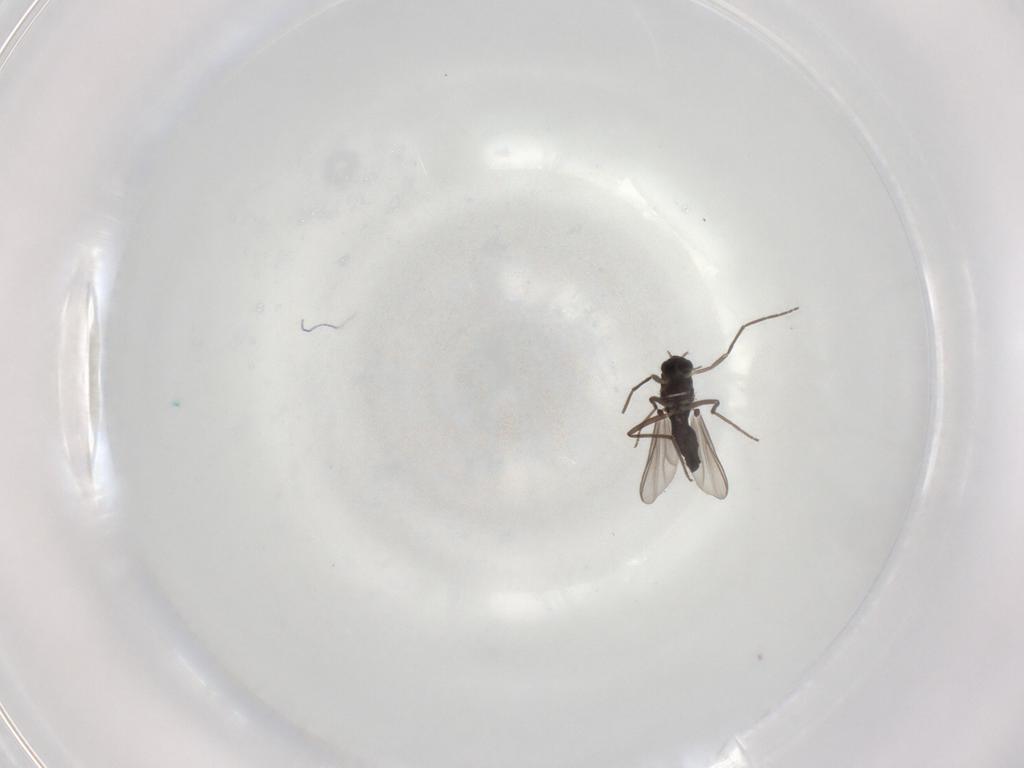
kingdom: Animalia
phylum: Arthropoda
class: Insecta
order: Diptera
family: Chironomidae
